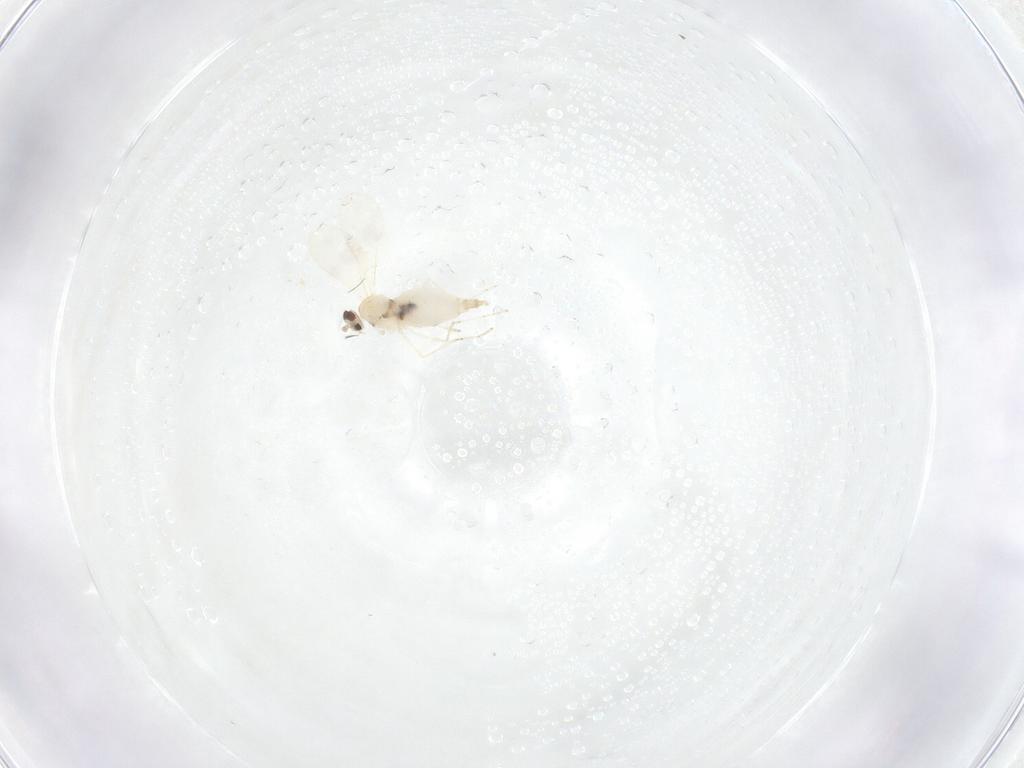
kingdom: Animalia
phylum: Arthropoda
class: Insecta
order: Diptera
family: Cecidomyiidae
